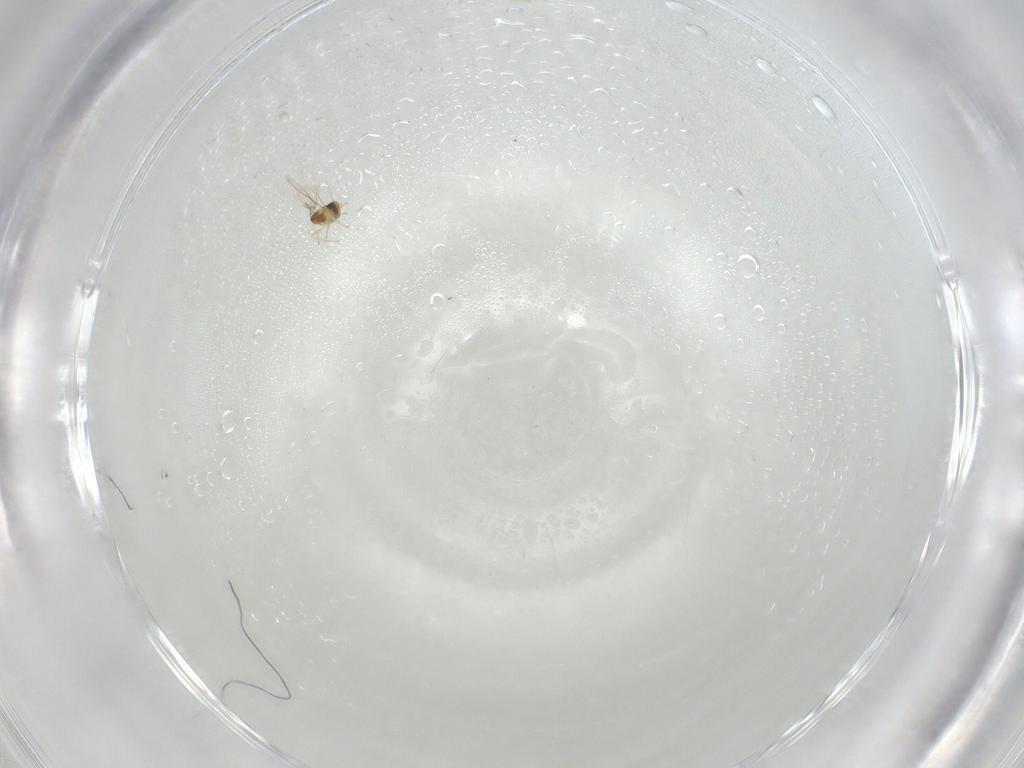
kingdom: Animalia
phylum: Arthropoda
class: Insecta
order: Hymenoptera
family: Aphelinidae
